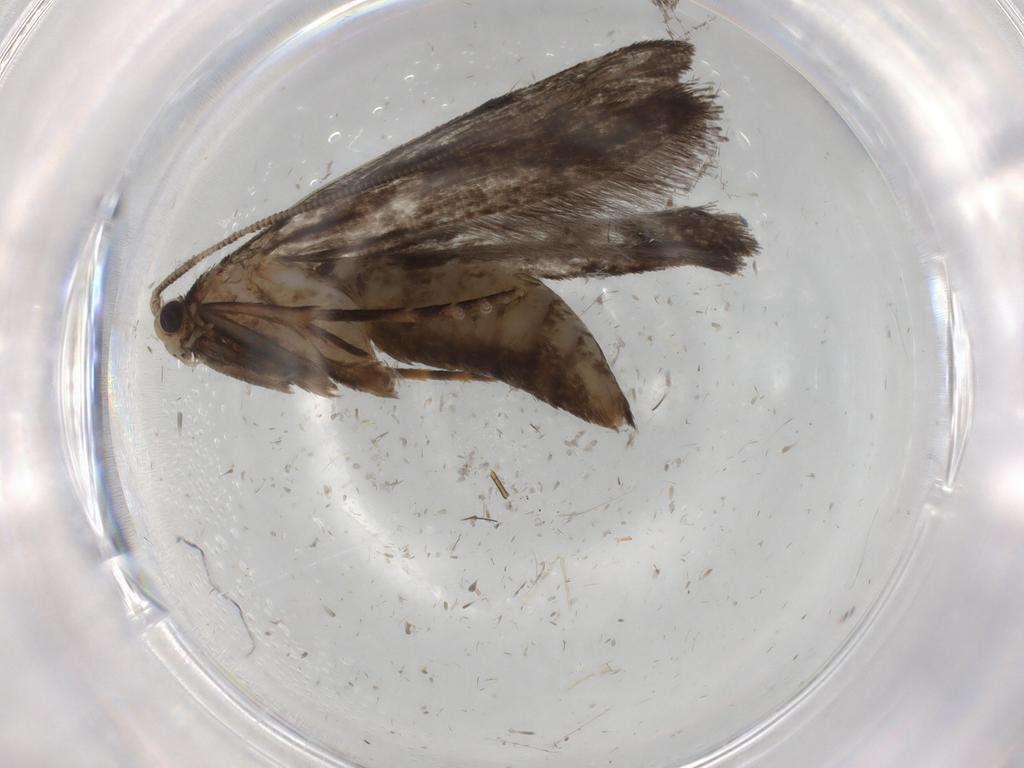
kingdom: Animalia
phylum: Arthropoda
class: Insecta
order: Lepidoptera
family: Tineidae
